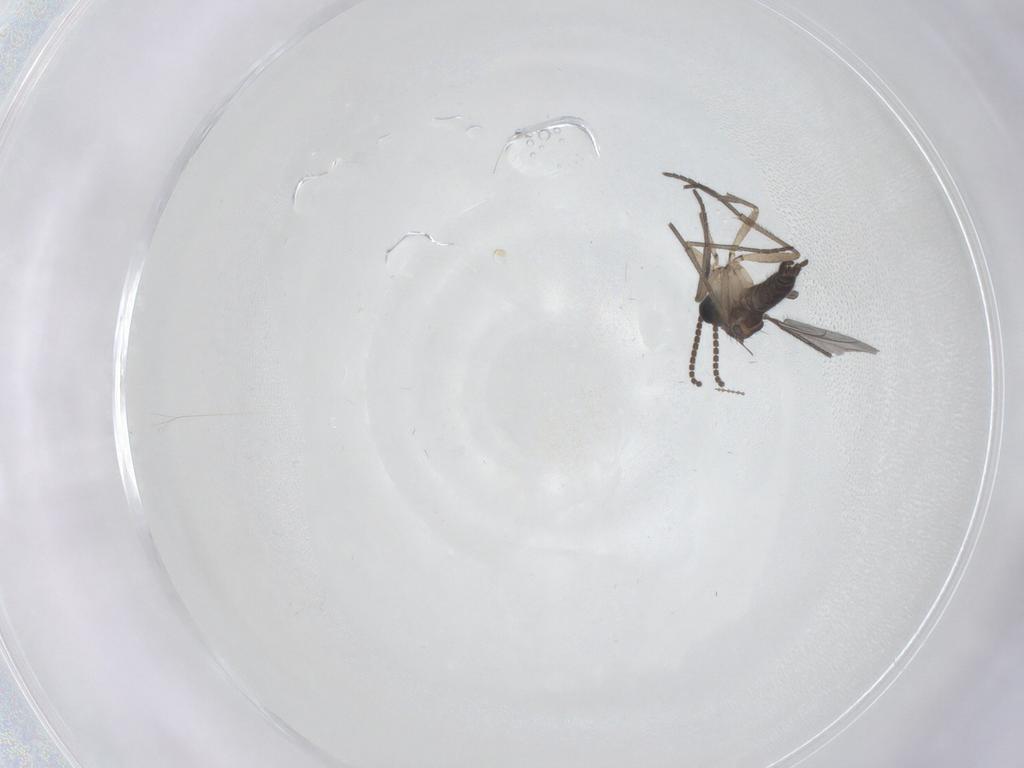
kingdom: Animalia
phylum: Arthropoda
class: Insecta
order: Diptera
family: Sciaridae
